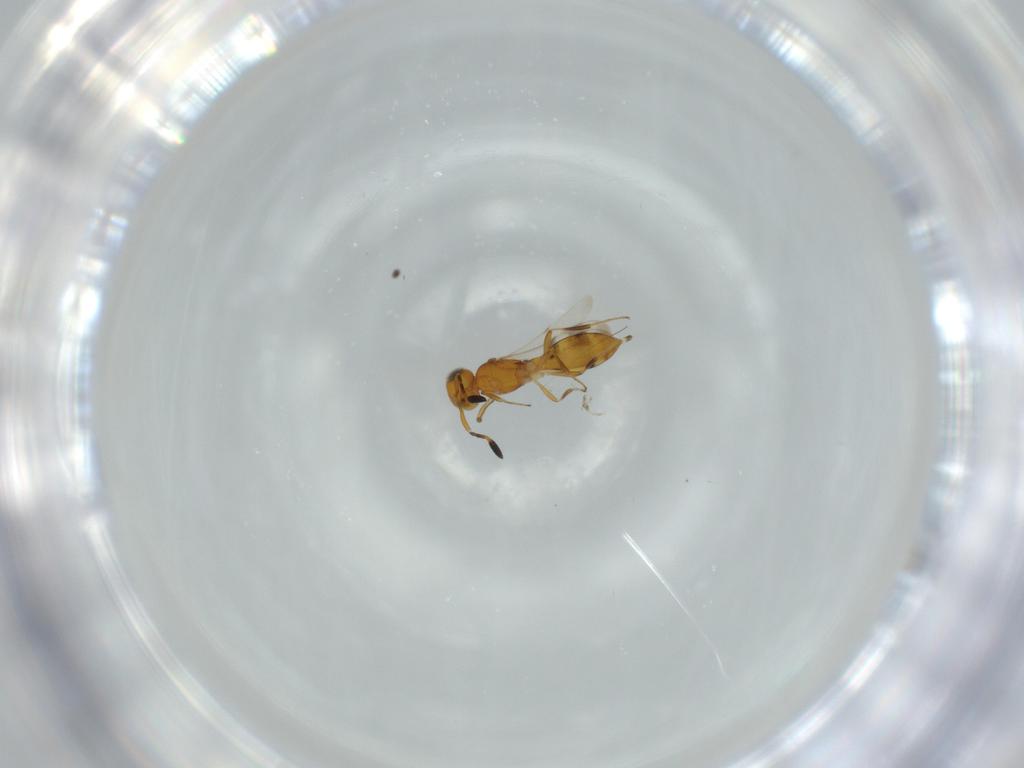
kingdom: Animalia
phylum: Arthropoda
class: Insecta
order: Hymenoptera
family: Scelionidae
